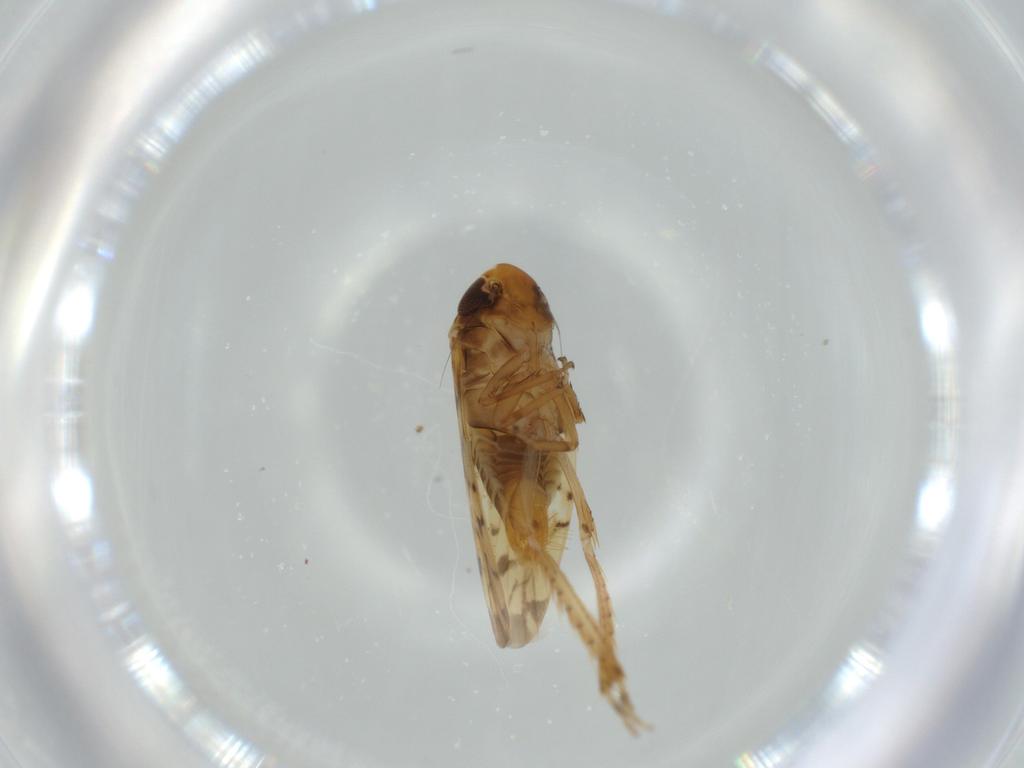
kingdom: Animalia
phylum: Arthropoda
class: Insecta
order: Hemiptera
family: Cicadellidae
